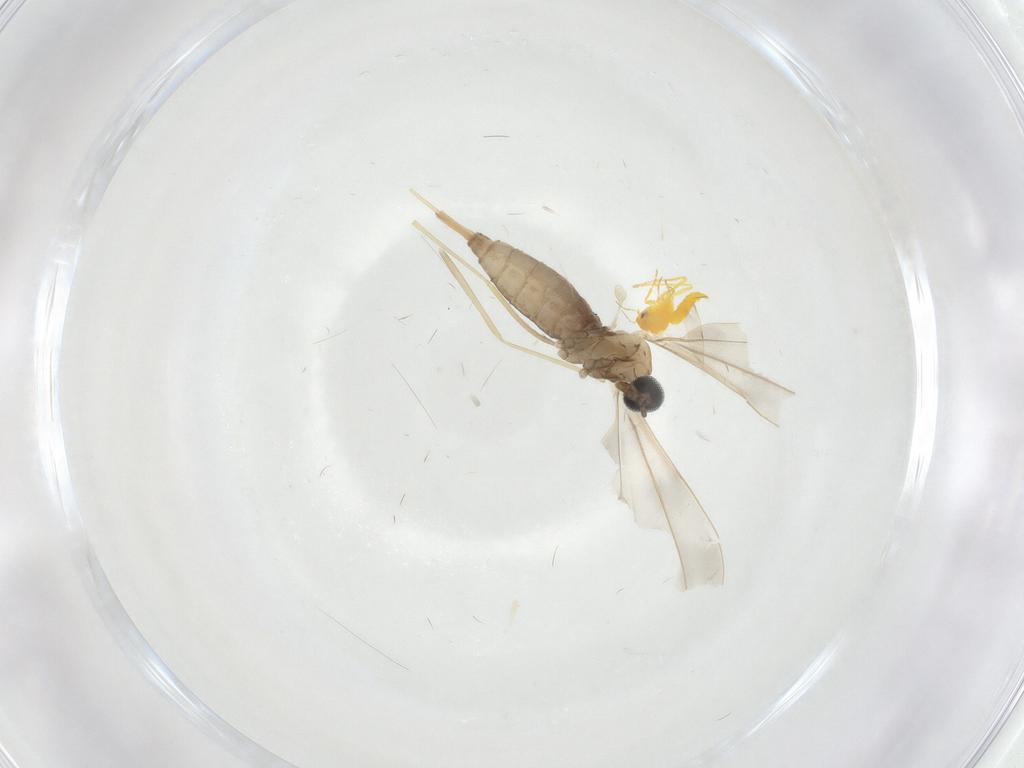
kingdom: Animalia
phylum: Arthropoda
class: Insecta
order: Diptera
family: Cecidomyiidae
